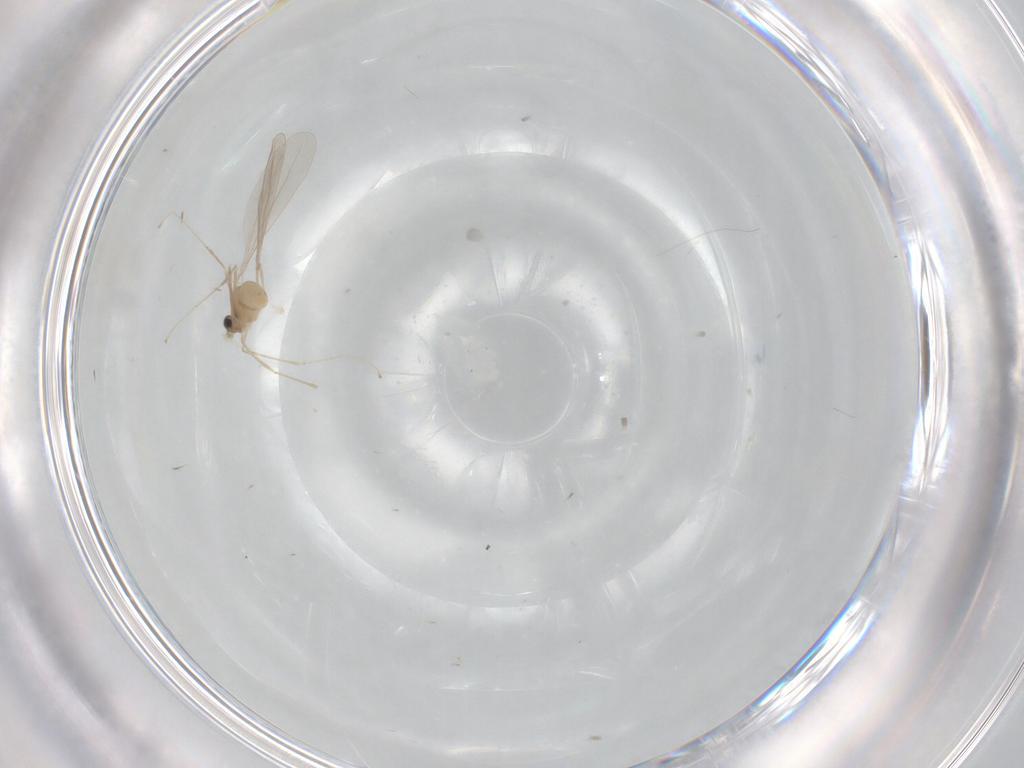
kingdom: Animalia
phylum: Arthropoda
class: Insecta
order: Diptera
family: Cecidomyiidae
